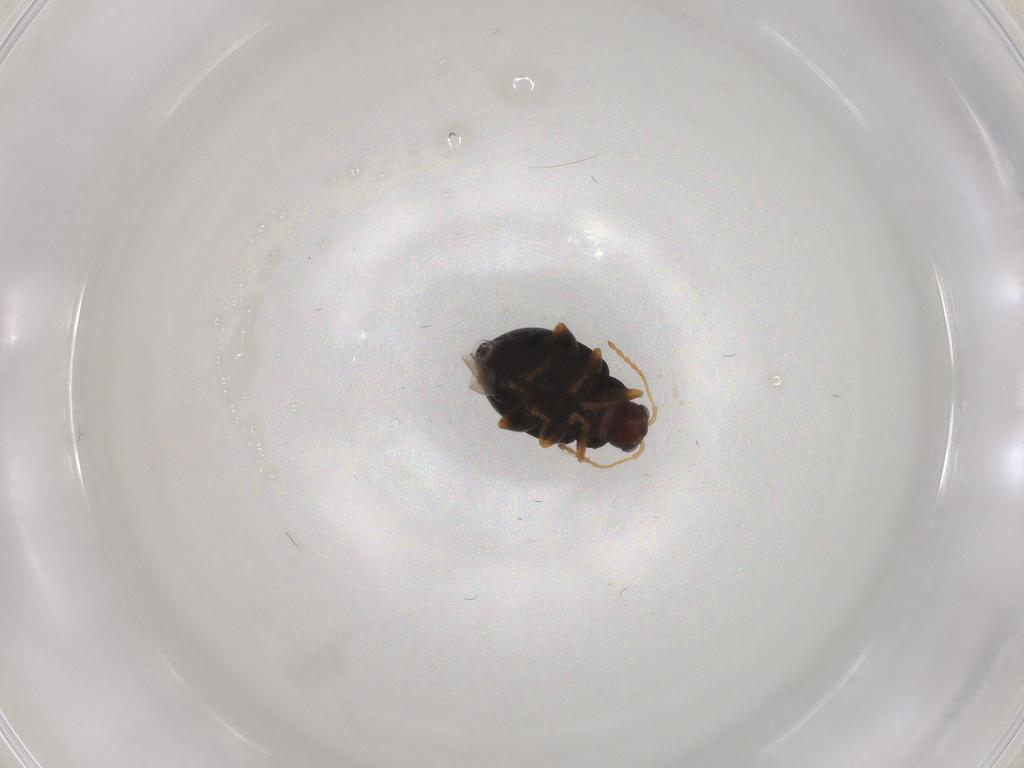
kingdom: Animalia
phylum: Arthropoda
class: Insecta
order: Coleoptera
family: Chrysomelidae
